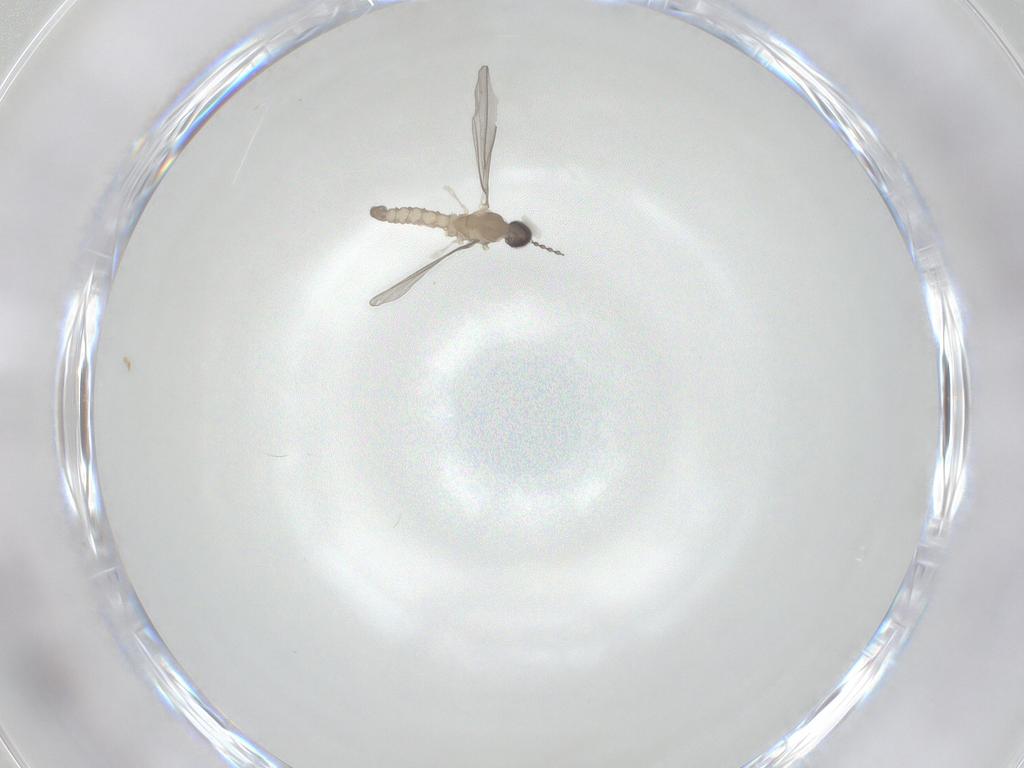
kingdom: Animalia
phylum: Arthropoda
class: Insecta
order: Diptera
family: Cecidomyiidae
